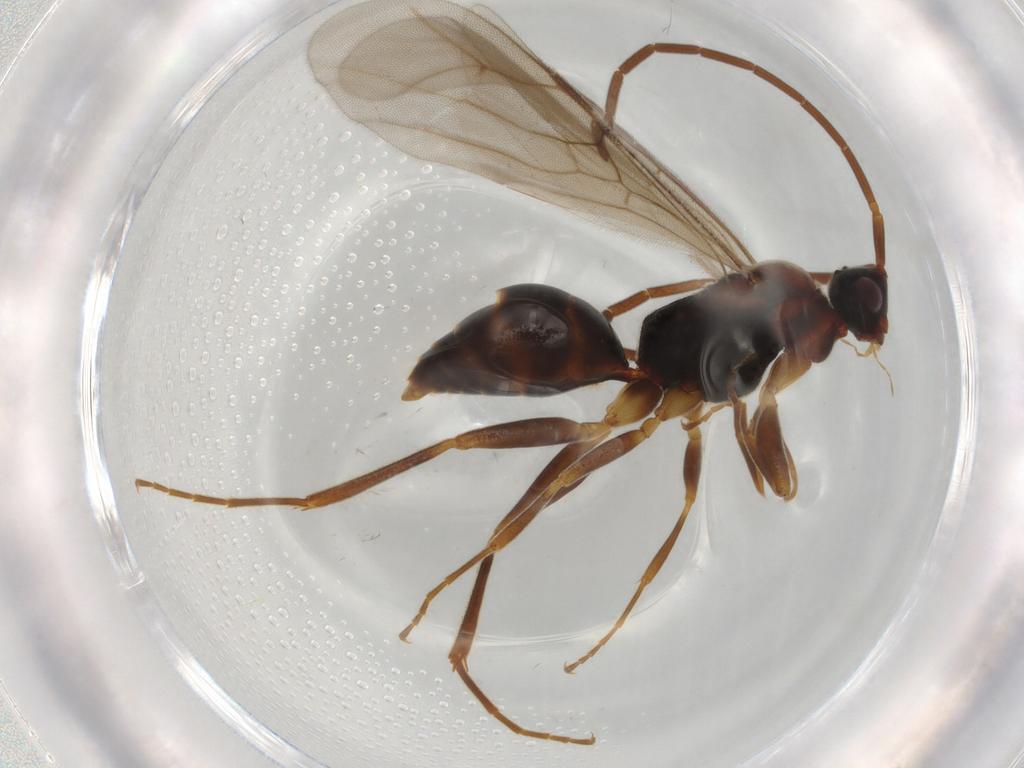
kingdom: Animalia
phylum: Arthropoda
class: Insecta
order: Hymenoptera
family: Embolemidae
